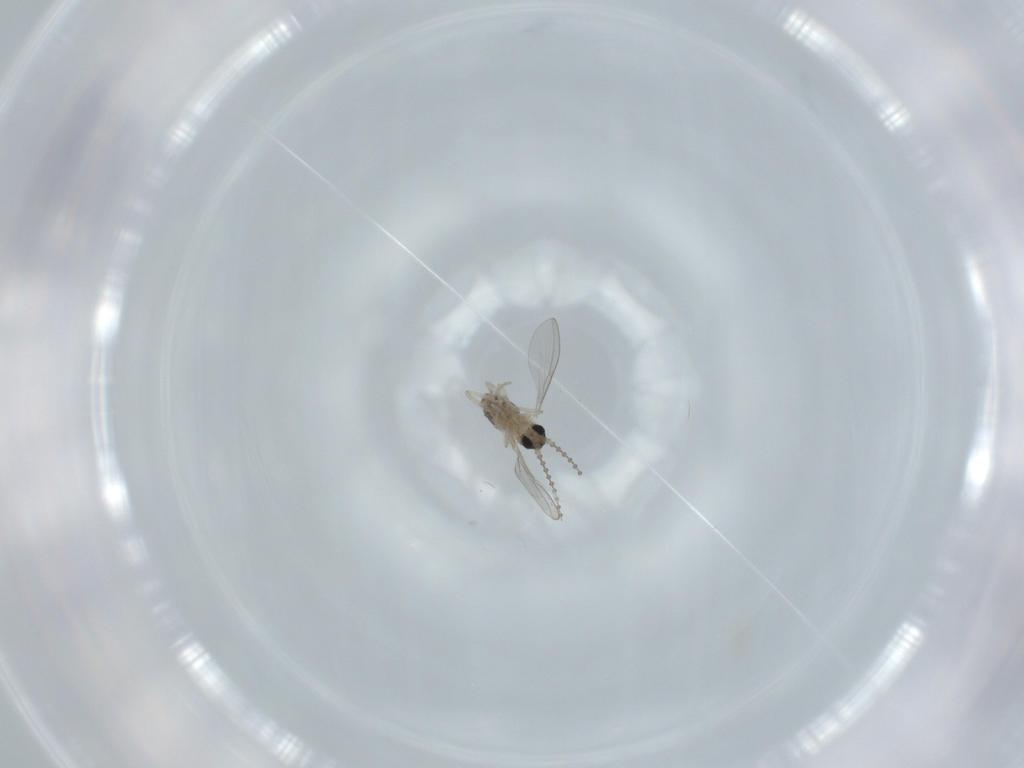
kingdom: Animalia
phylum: Arthropoda
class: Insecta
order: Diptera
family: Cecidomyiidae
